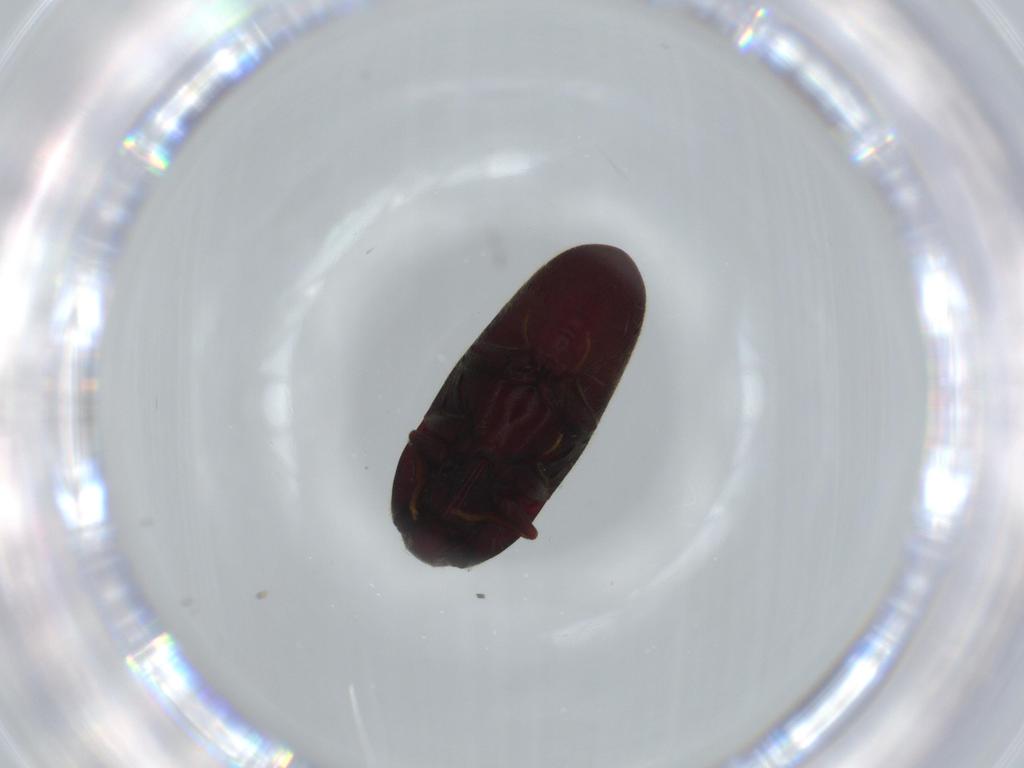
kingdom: Animalia
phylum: Arthropoda
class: Insecta
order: Coleoptera
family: Throscidae
